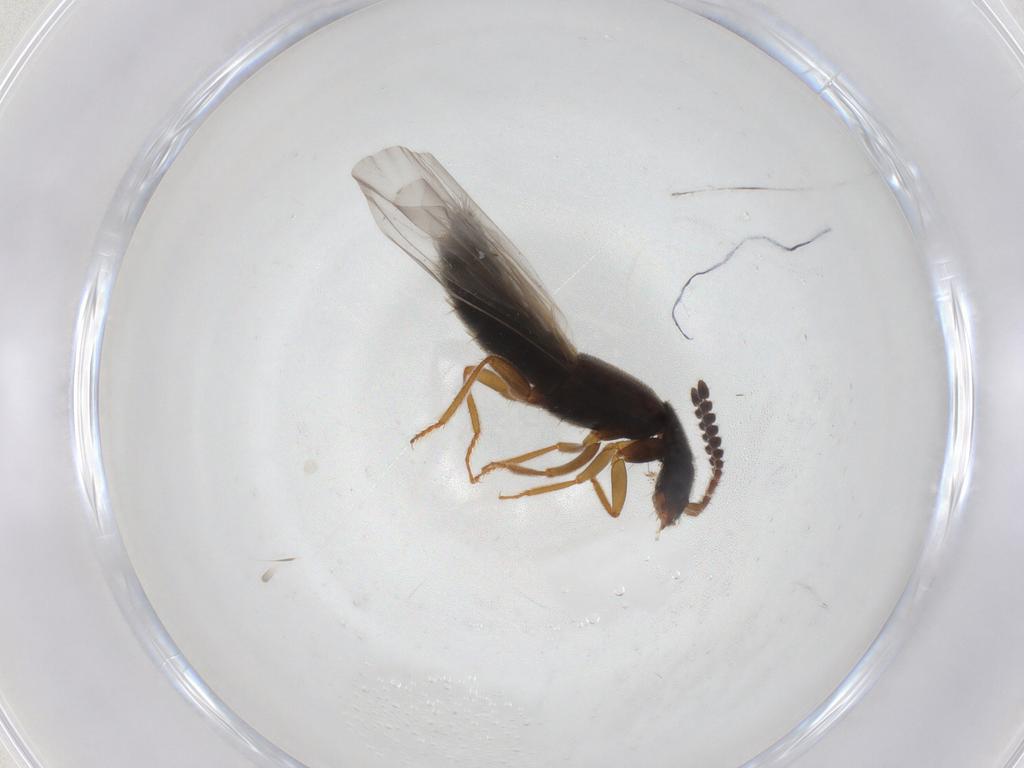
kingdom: Animalia
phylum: Arthropoda
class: Insecta
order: Coleoptera
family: Staphylinidae
